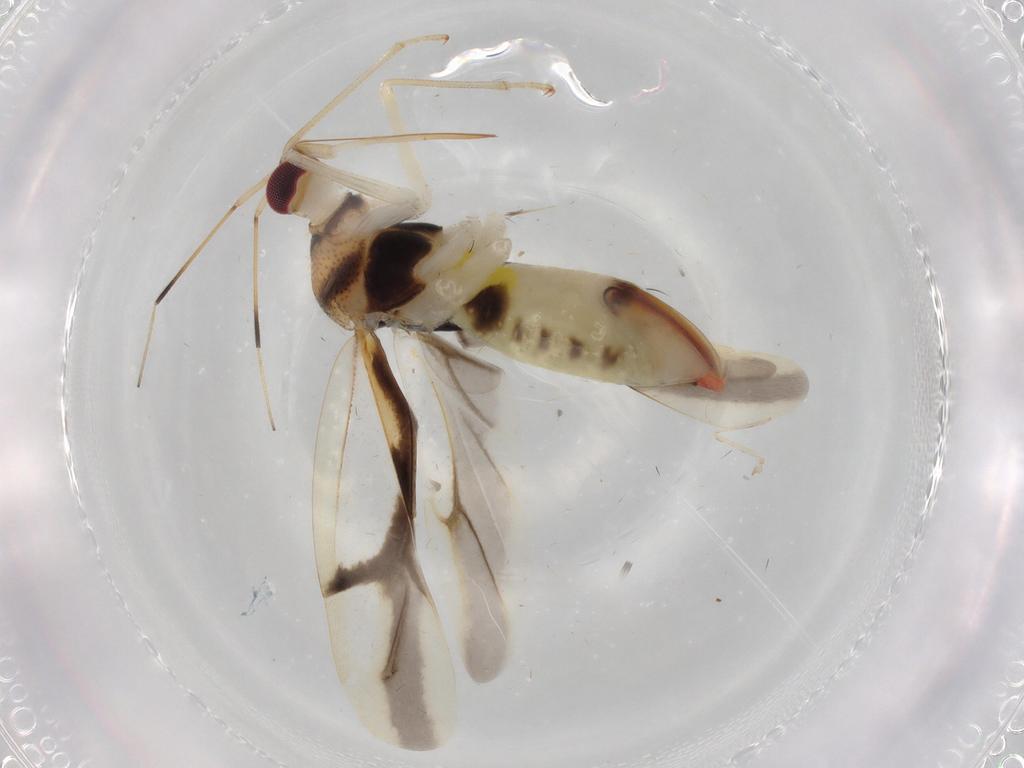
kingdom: Animalia
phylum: Arthropoda
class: Insecta
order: Hemiptera
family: Miridae
